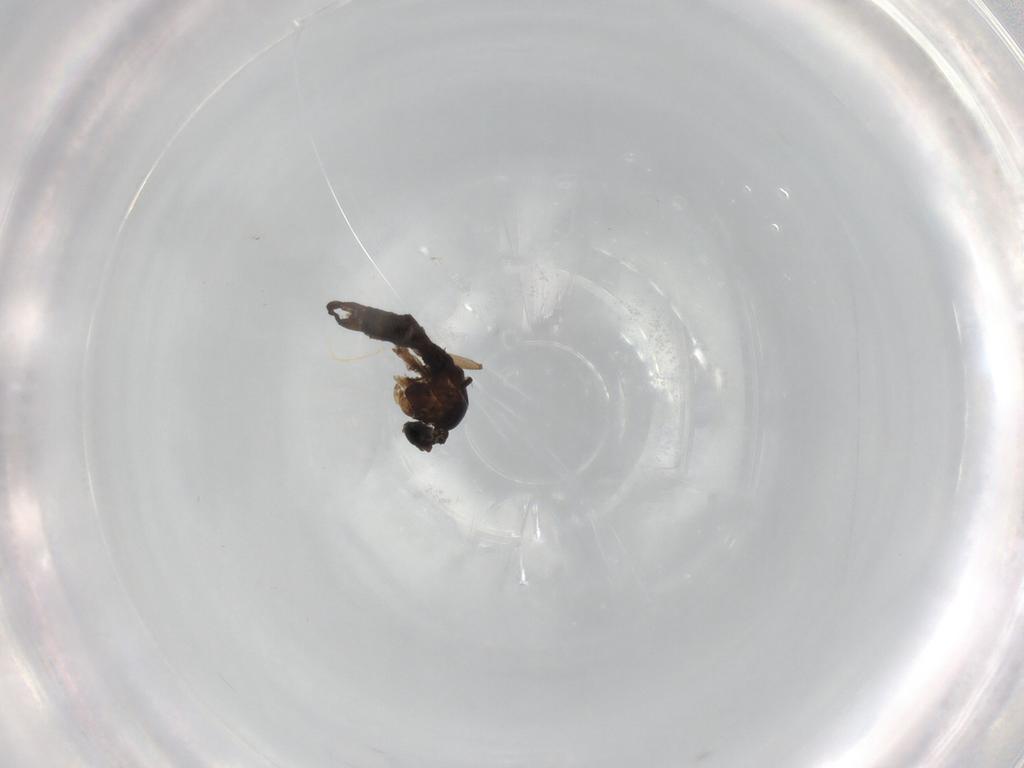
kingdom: Animalia
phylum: Arthropoda
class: Insecta
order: Diptera
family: Sciaridae
